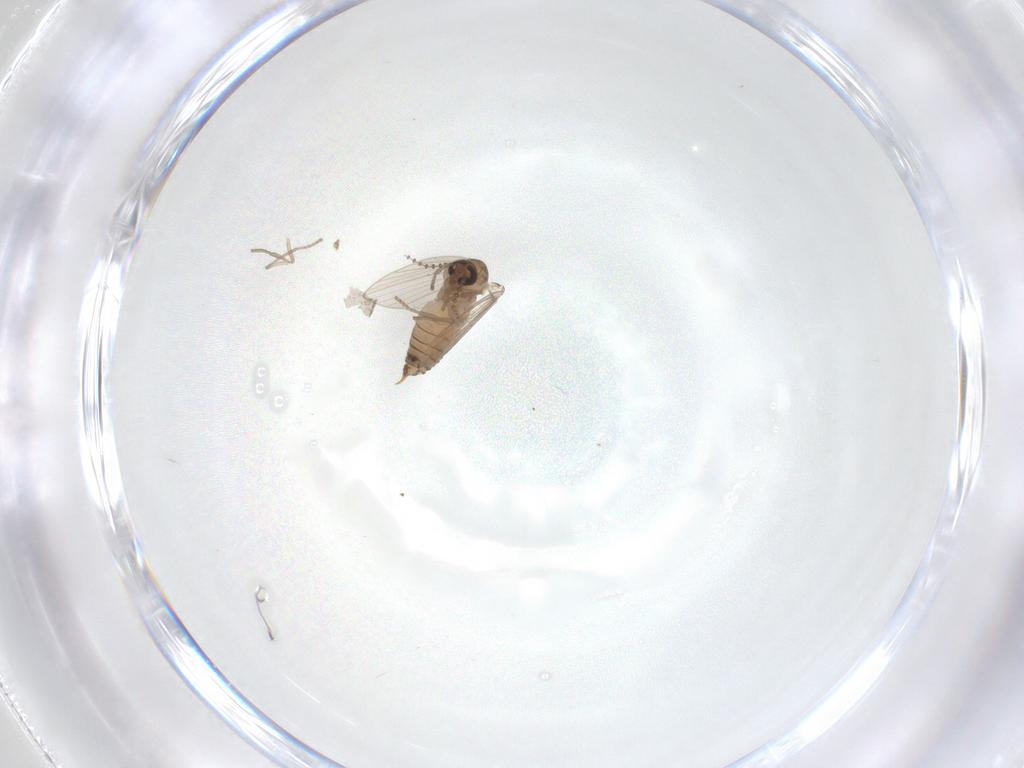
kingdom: Animalia
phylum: Arthropoda
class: Insecta
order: Diptera
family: Psychodidae
